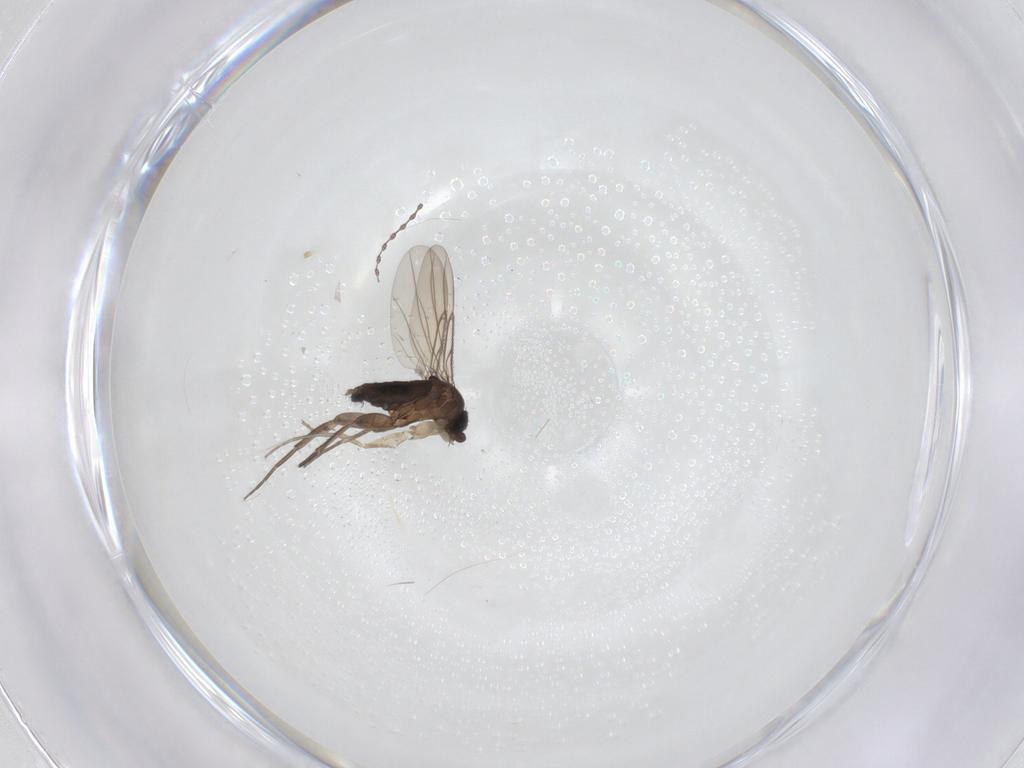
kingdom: Animalia
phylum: Arthropoda
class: Insecta
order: Diptera
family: Phoridae
